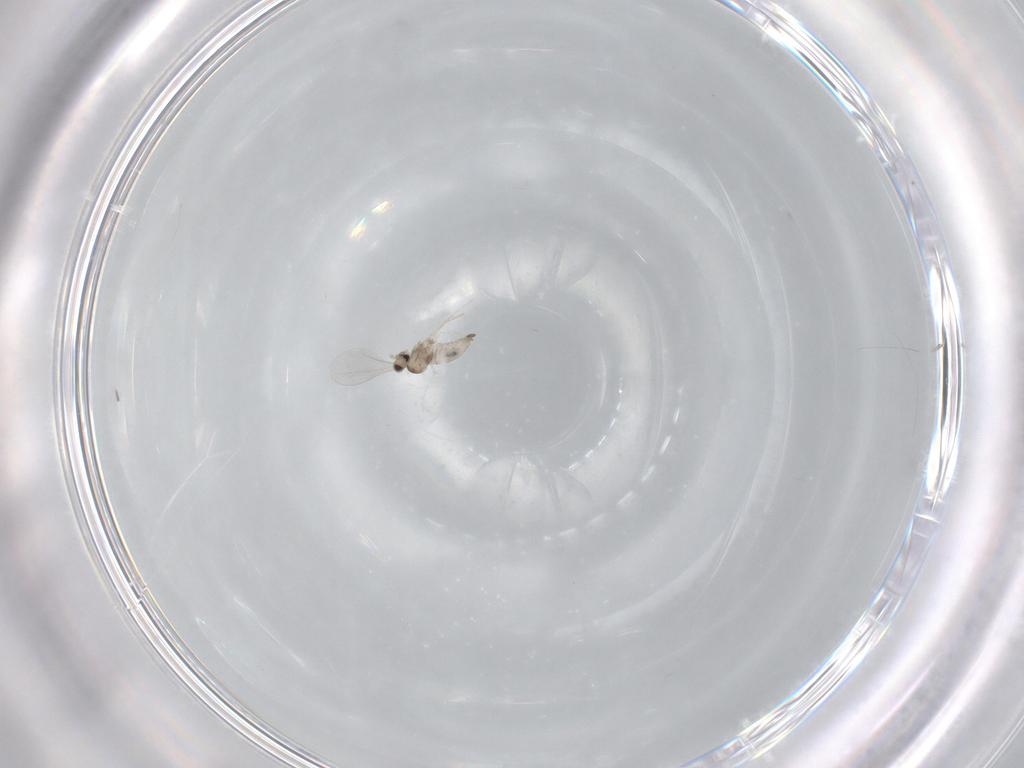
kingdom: Animalia
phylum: Arthropoda
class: Insecta
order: Diptera
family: Cecidomyiidae
